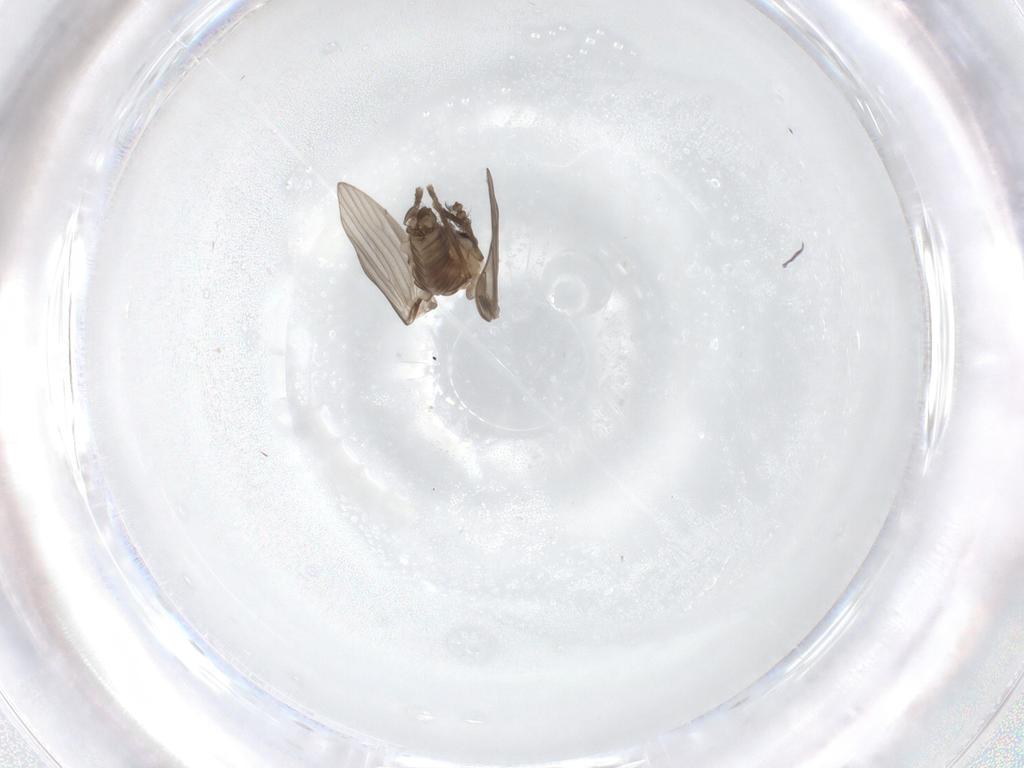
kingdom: Animalia
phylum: Arthropoda
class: Insecta
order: Diptera
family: Psychodidae
